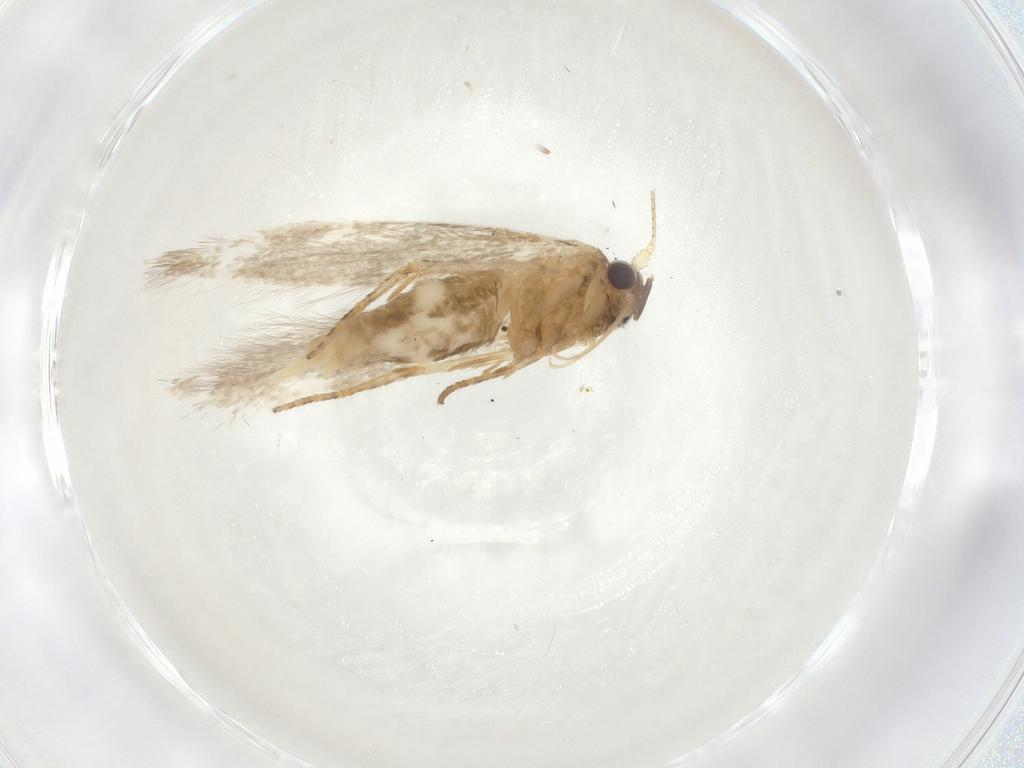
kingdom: Animalia
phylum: Arthropoda
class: Insecta
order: Lepidoptera
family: Coleophoridae
